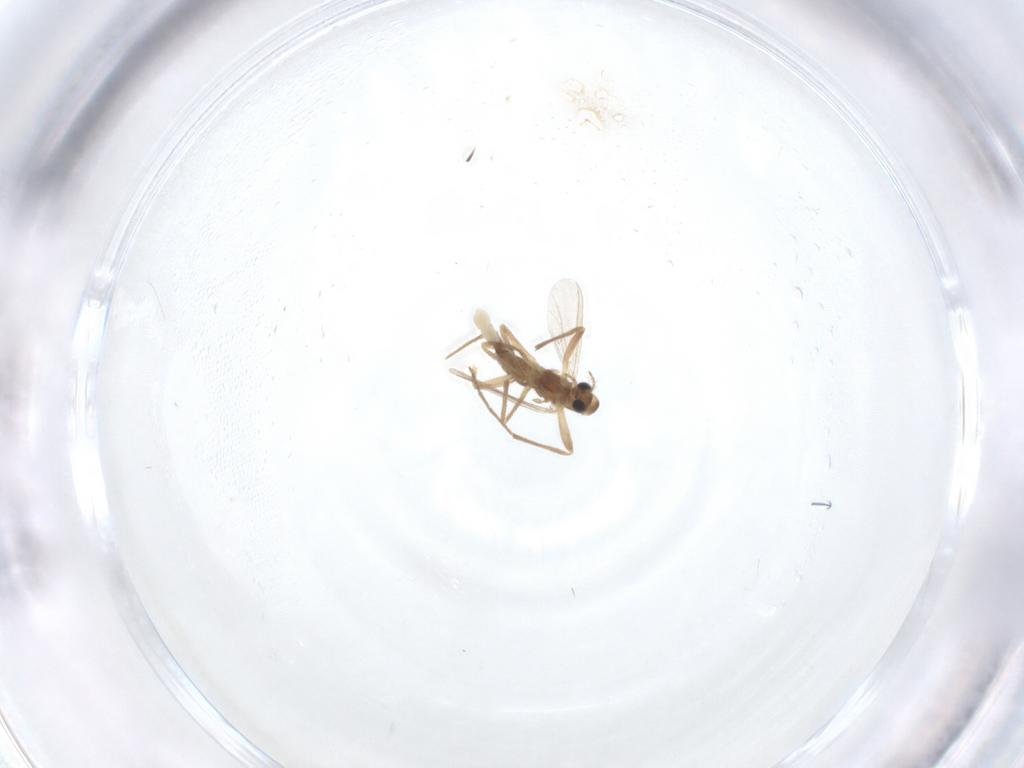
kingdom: Animalia
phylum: Arthropoda
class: Insecta
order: Diptera
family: Chironomidae
